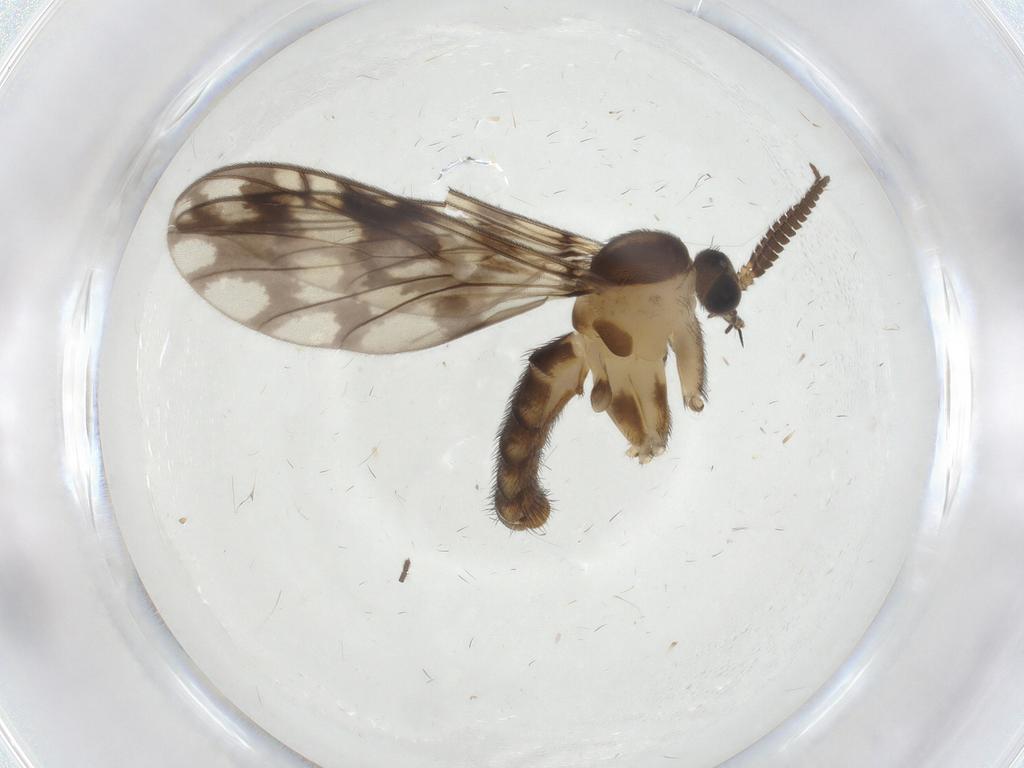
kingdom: Animalia
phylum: Arthropoda
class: Insecta
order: Diptera
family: Keroplatidae
